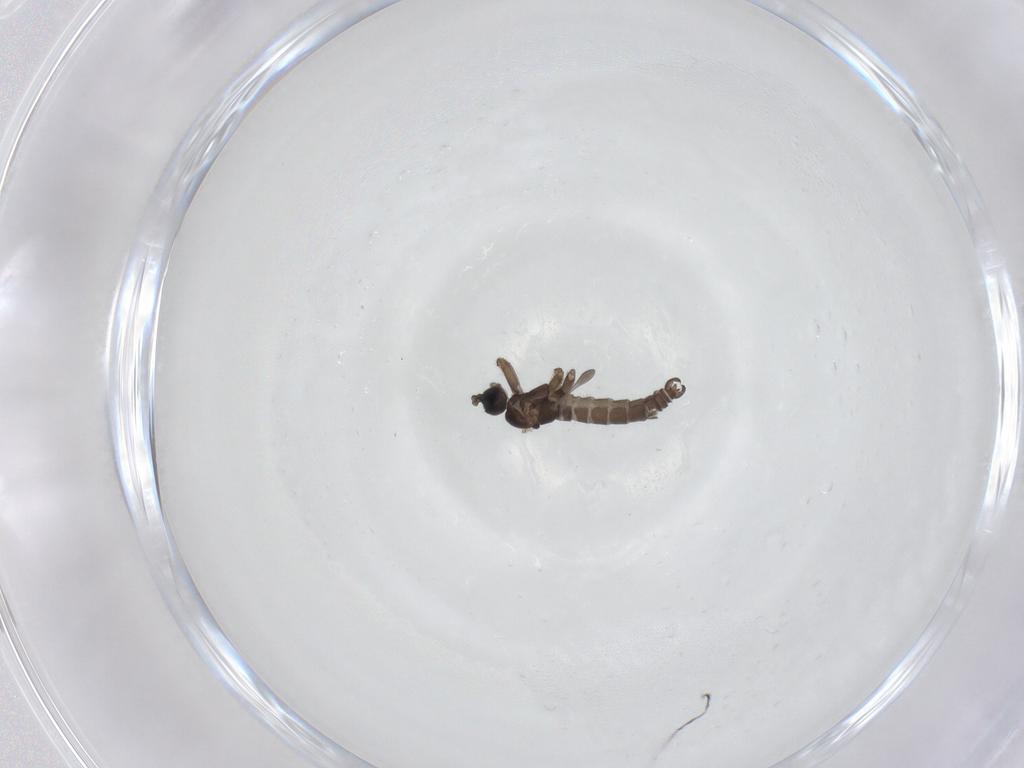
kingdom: Animalia
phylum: Arthropoda
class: Insecta
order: Diptera
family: Sciaridae
